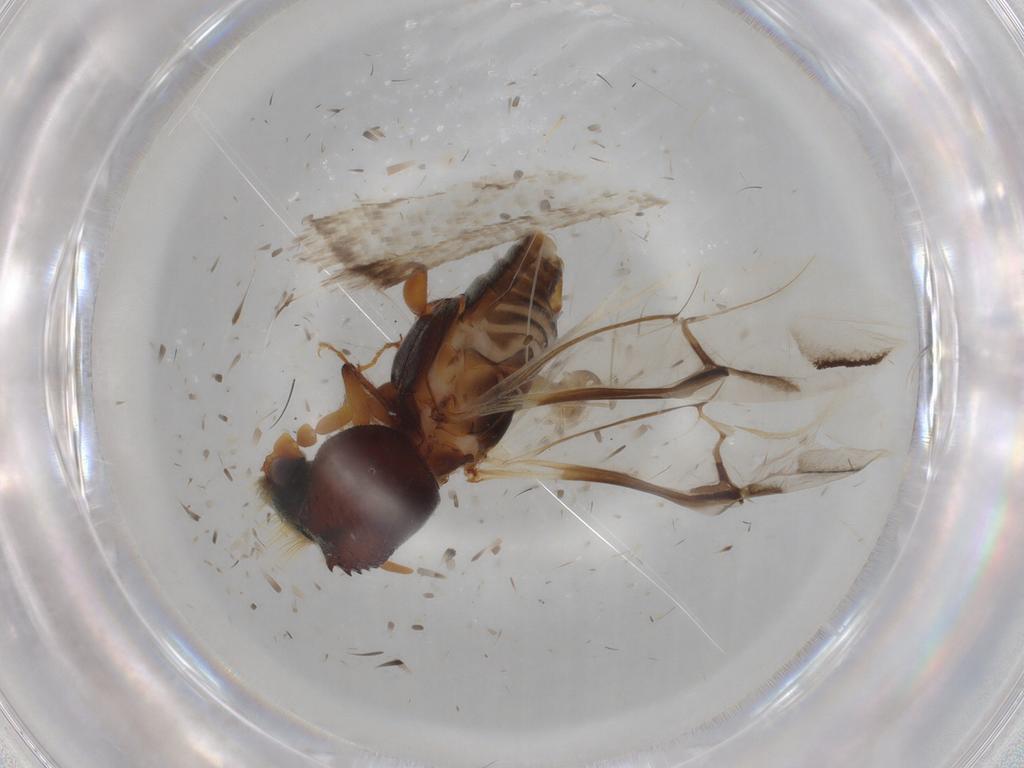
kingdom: Animalia
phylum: Arthropoda
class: Insecta
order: Coleoptera
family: Bostrichidae
